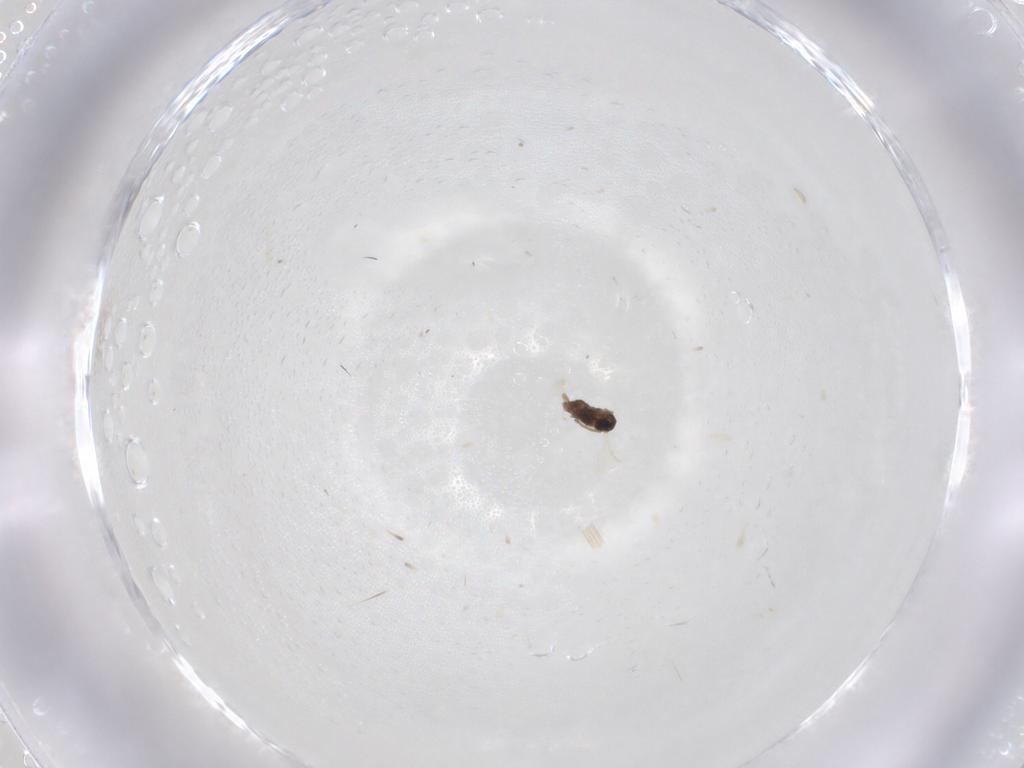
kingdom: Animalia
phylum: Arthropoda
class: Insecta
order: Diptera
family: Cecidomyiidae
